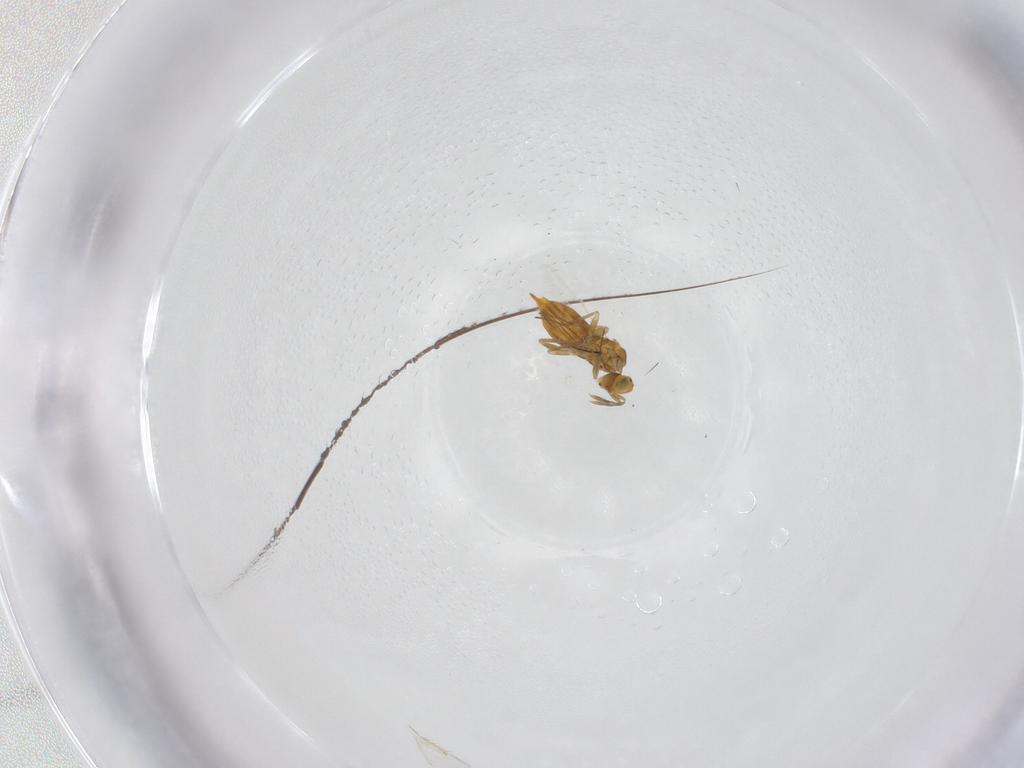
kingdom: Animalia
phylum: Arthropoda
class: Insecta
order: Hymenoptera
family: Aphelinidae
